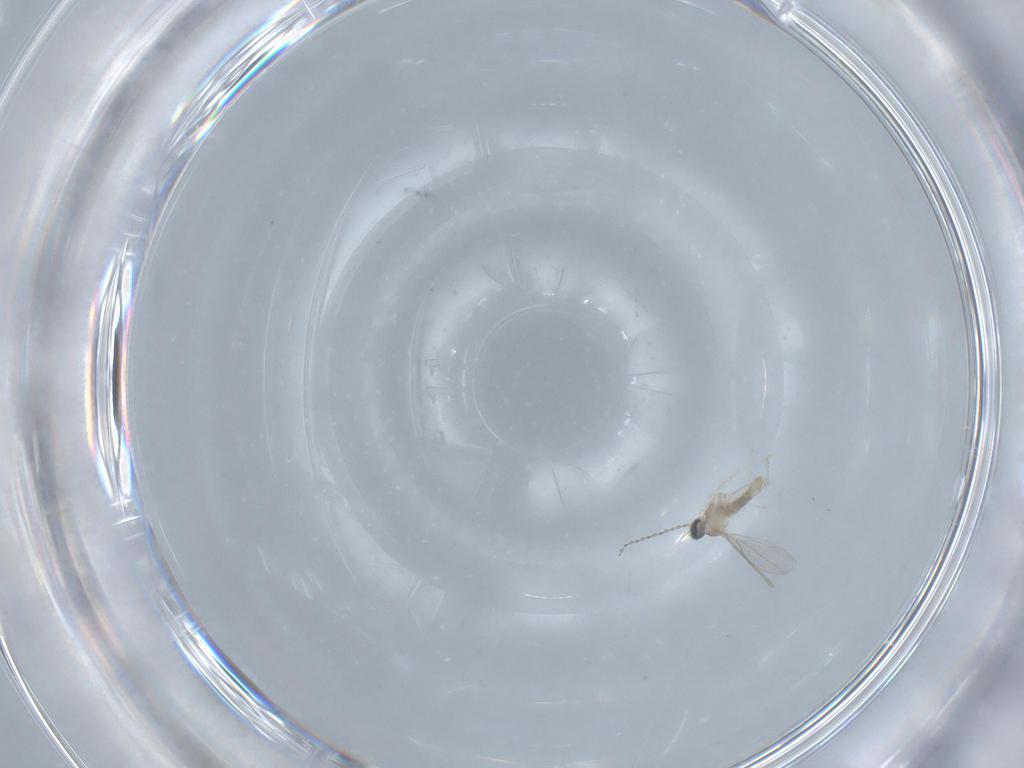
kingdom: Animalia
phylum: Arthropoda
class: Insecta
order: Diptera
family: Cecidomyiidae
